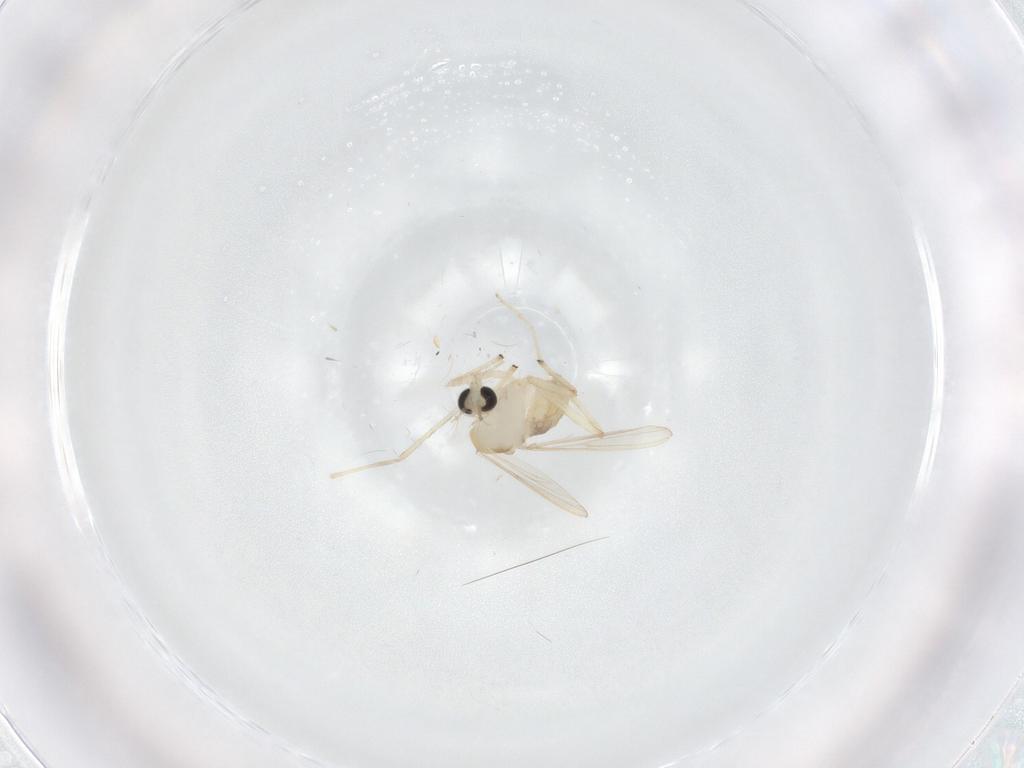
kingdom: Animalia
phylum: Arthropoda
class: Insecta
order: Diptera
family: Chironomidae
